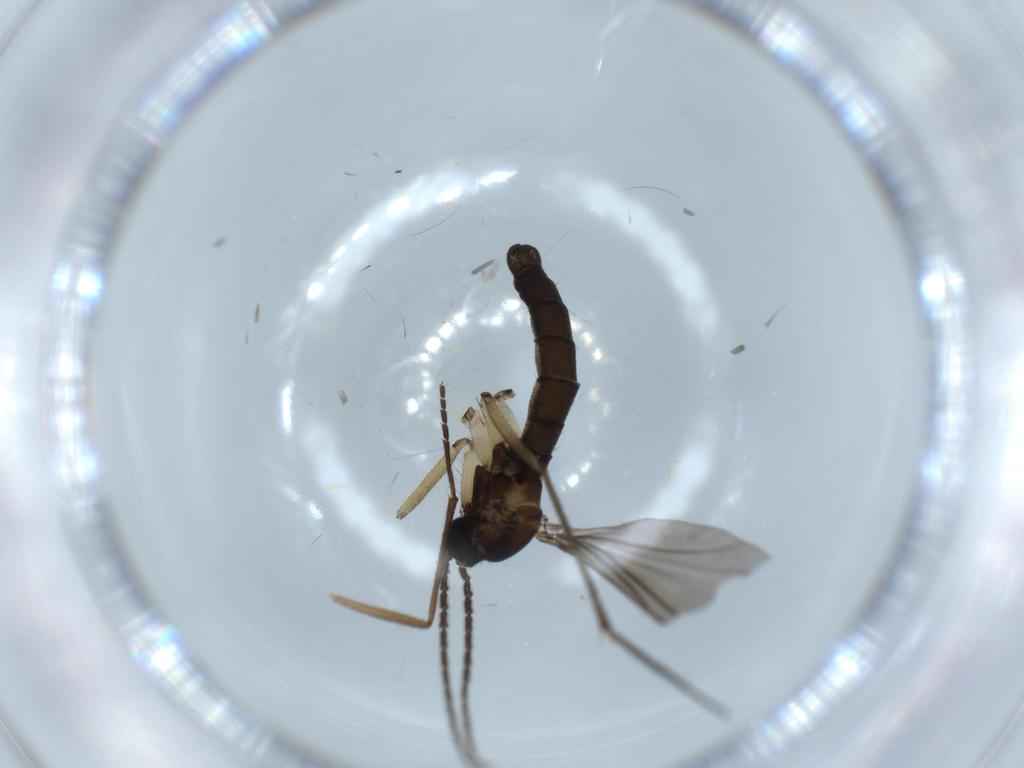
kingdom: Animalia
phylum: Arthropoda
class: Insecta
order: Diptera
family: Sciaridae
